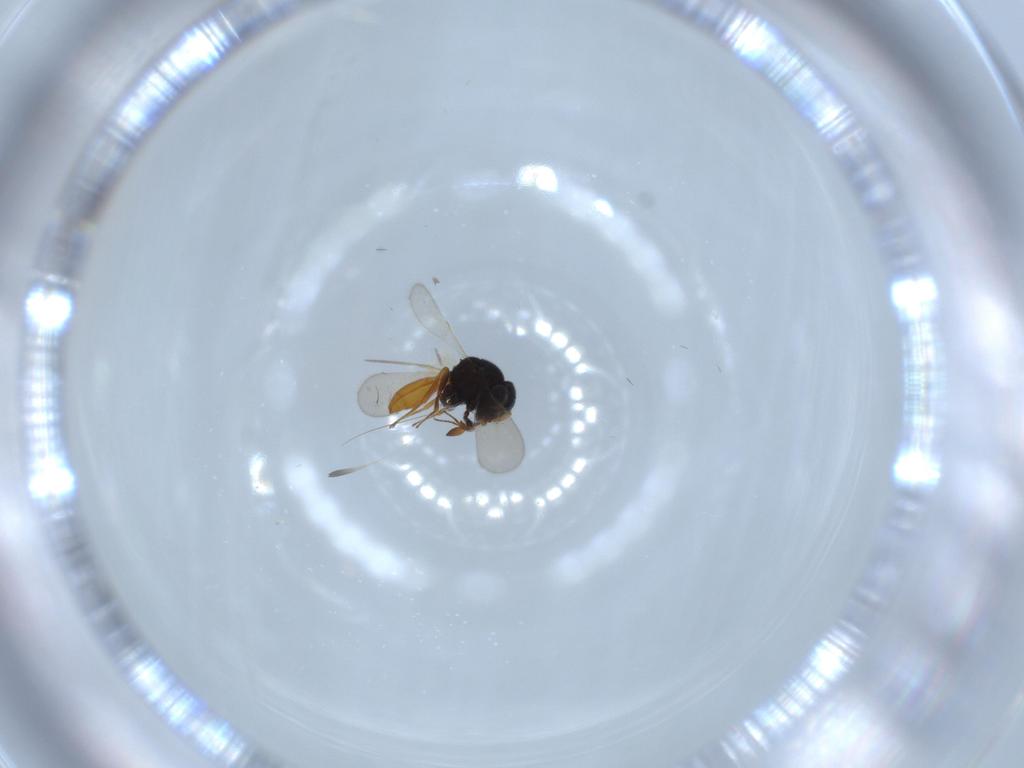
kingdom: Animalia
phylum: Arthropoda
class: Insecta
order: Hymenoptera
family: Scelionidae
